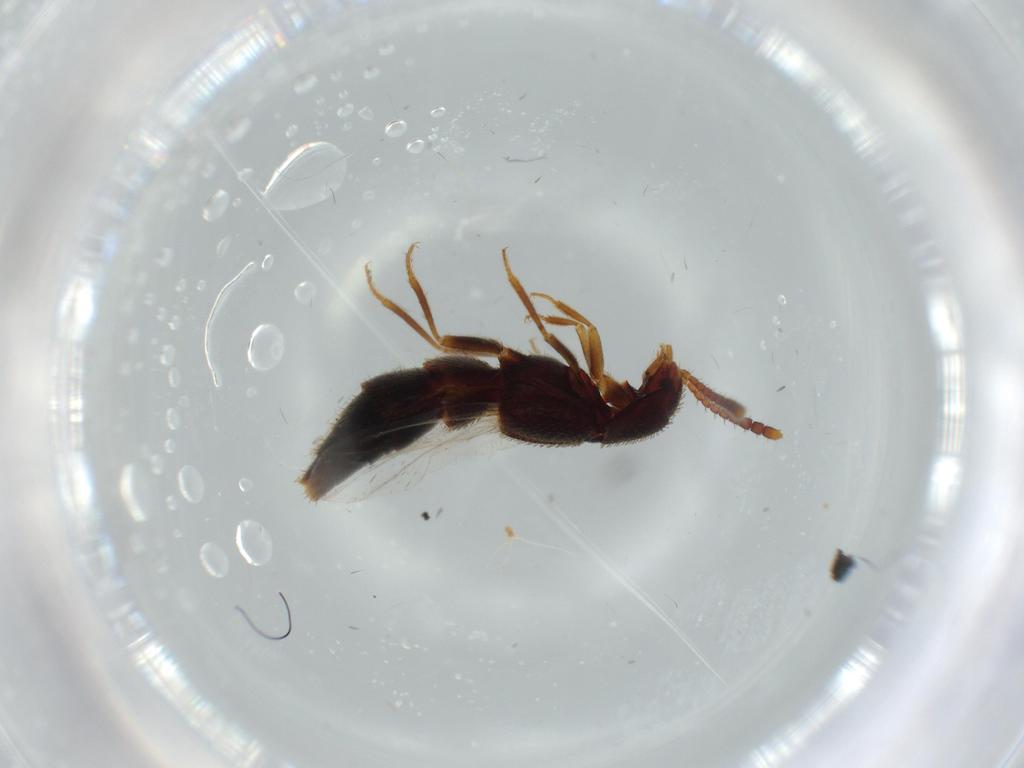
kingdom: Animalia
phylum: Arthropoda
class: Insecta
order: Coleoptera
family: Staphylinidae
